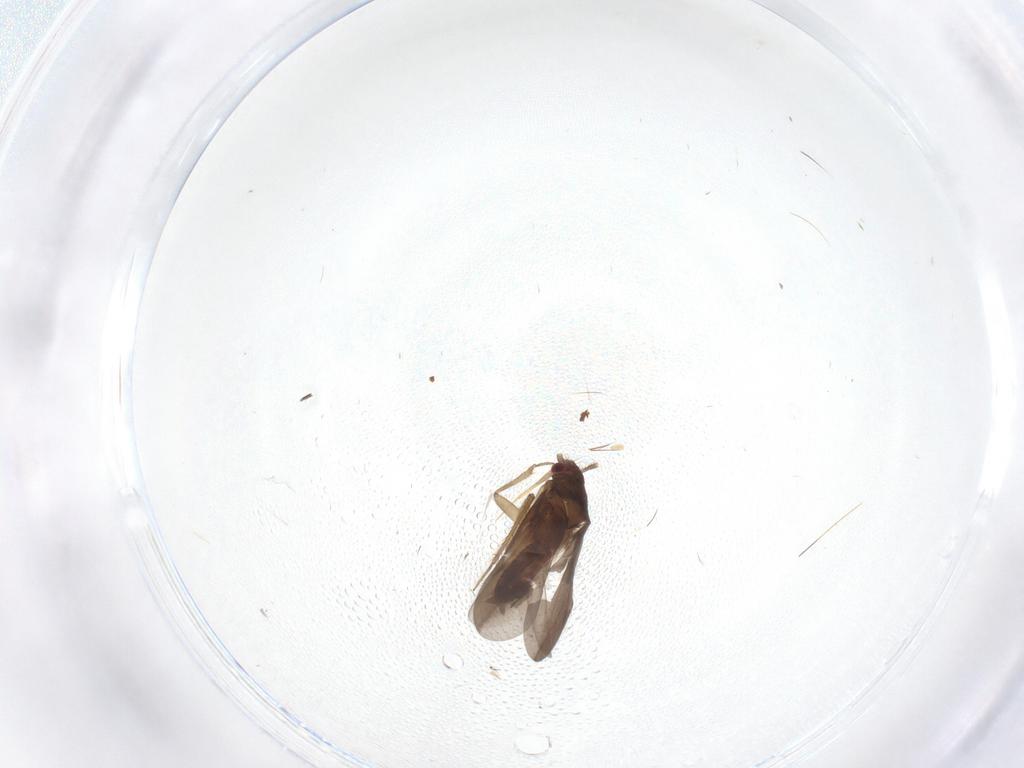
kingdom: Animalia
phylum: Arthropoda
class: Insecta
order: Hemiptera
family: Ceratocombidae
